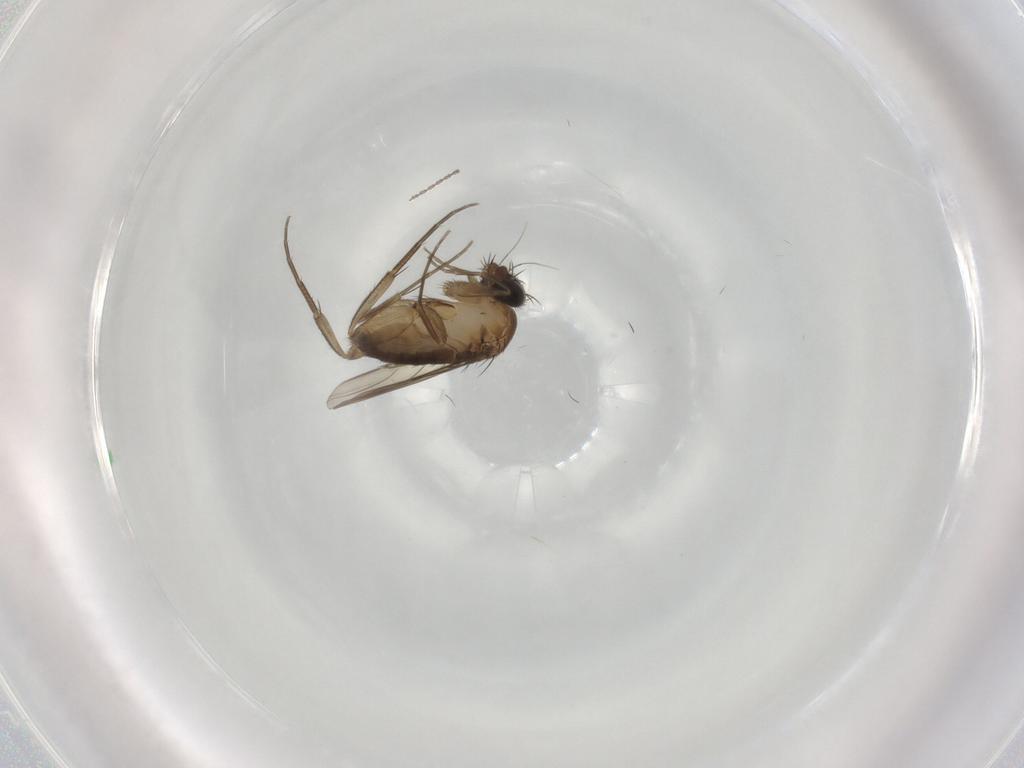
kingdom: Animalia
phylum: Arthropoda
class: Insecta
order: Diptera
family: Phoridae
